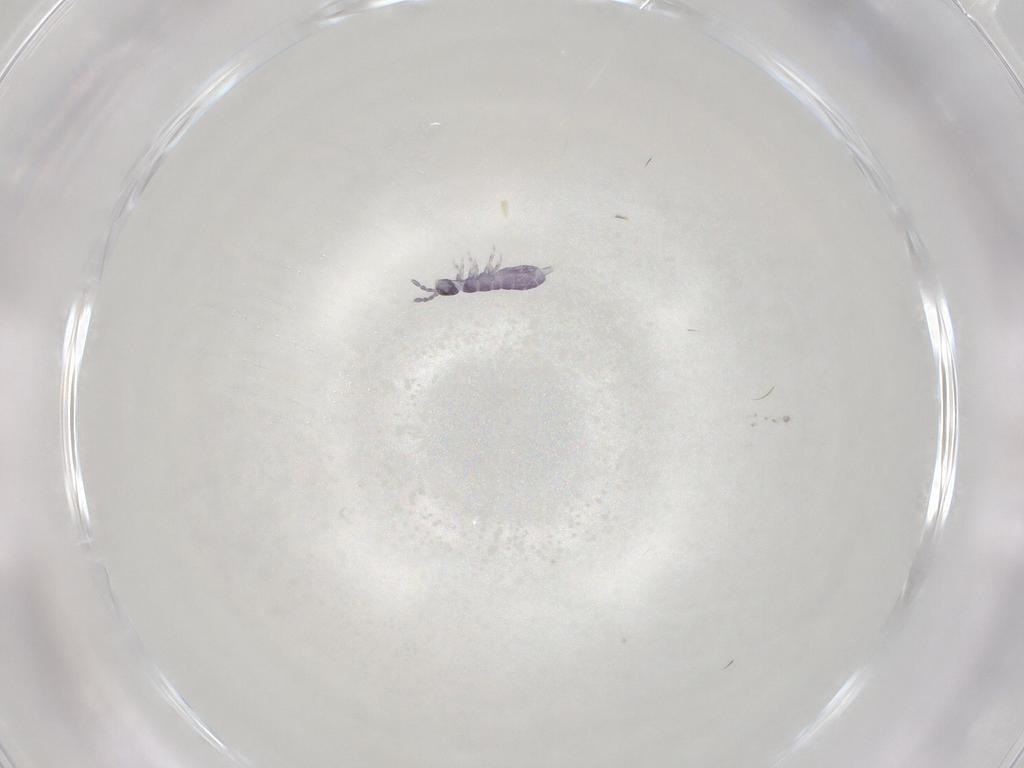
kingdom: Animalia
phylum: Arthropoda
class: Collembola
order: Entomobryomorpha
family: Isotomidae
